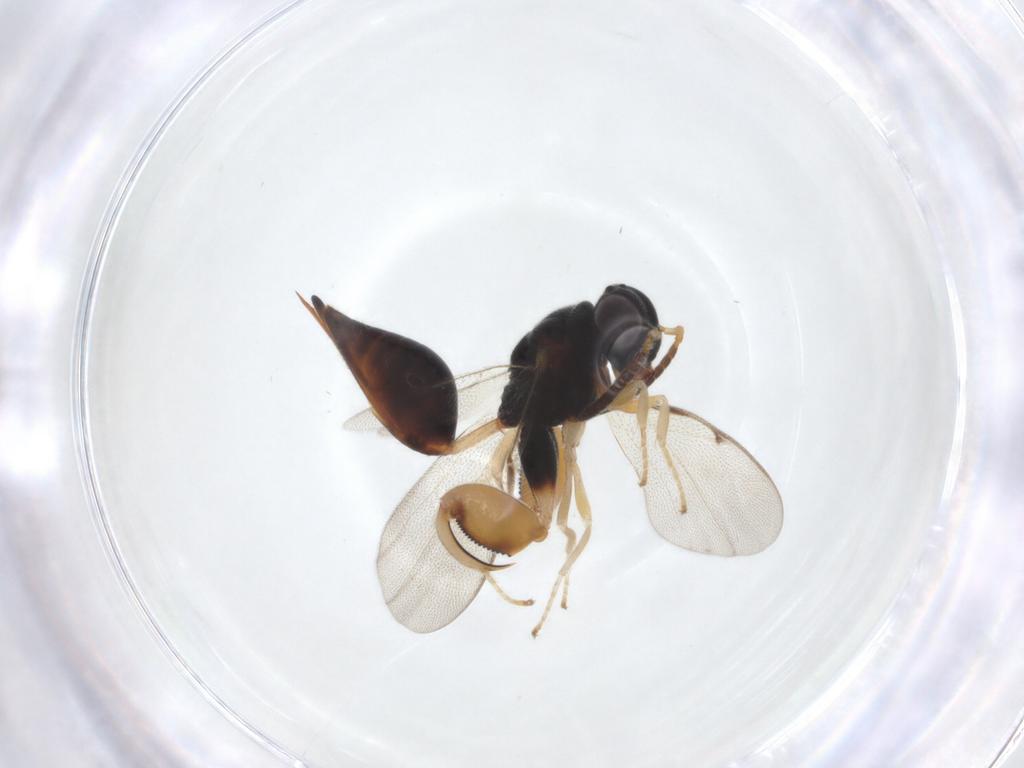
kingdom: Animalia
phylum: Arthropoda
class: Insecta
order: Hymenoptera
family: Chalcididae
